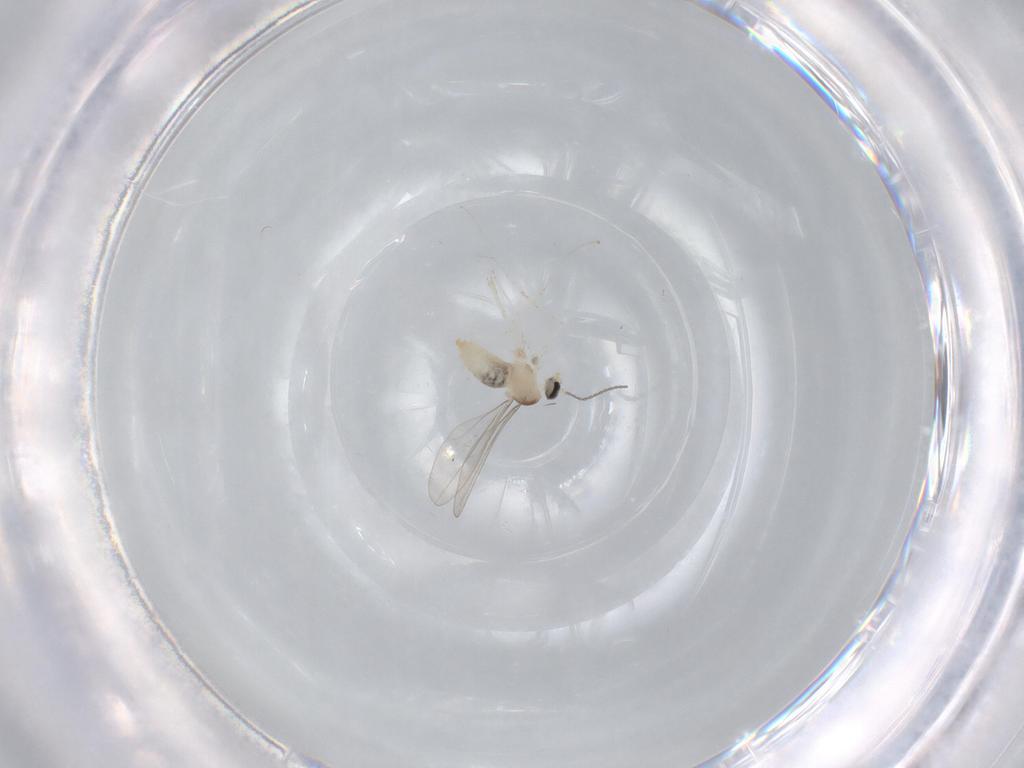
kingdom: Animalia
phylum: Arthropoda
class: Insecta
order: Diptera
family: Cecidomyiidae
